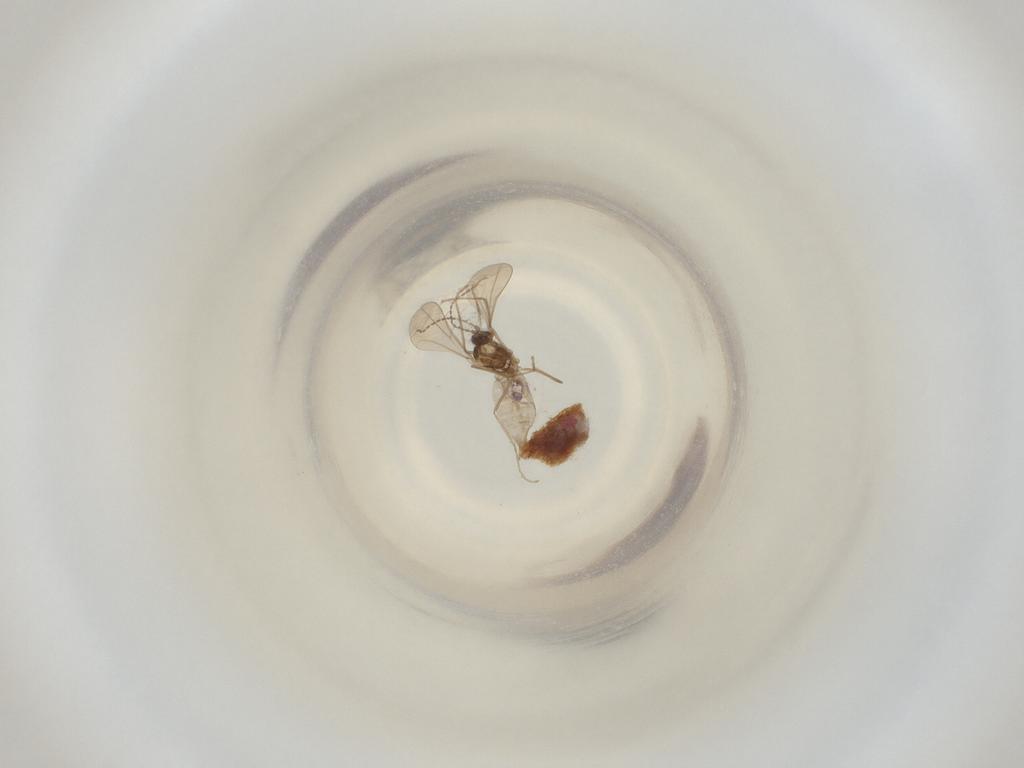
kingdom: Animalia
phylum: Arthropoda
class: Insecta
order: Diptera
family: Cecidomyiidae
